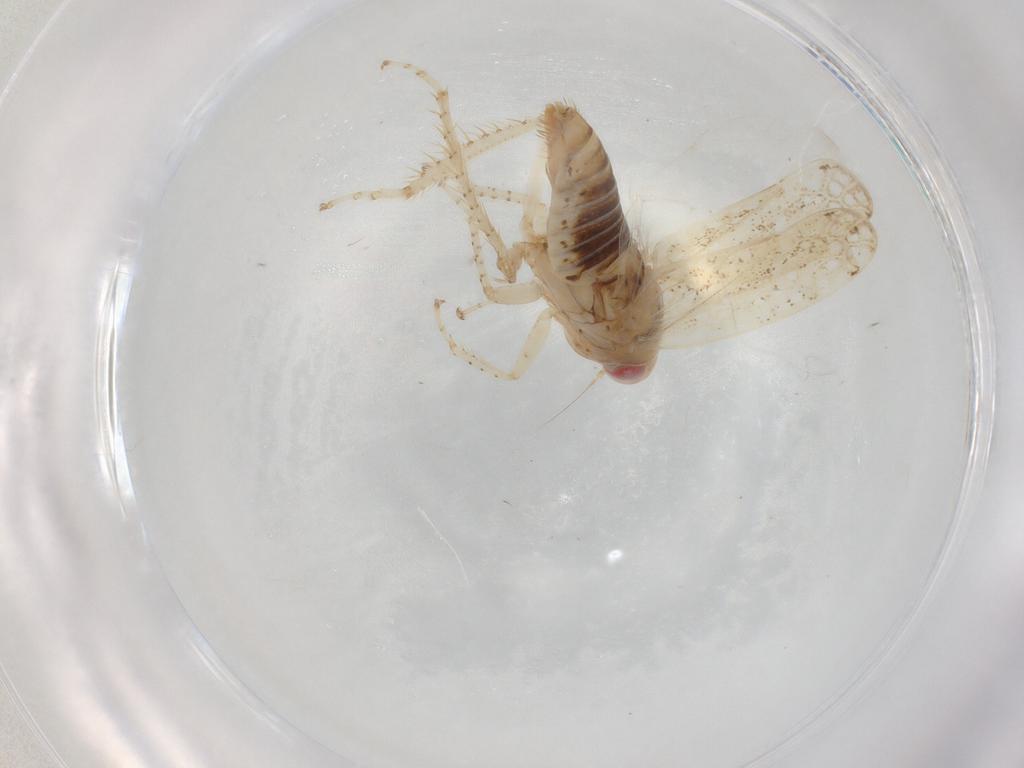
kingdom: Animalia
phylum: Arthropoda
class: Insecta
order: Hemiptera
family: Cicadellidae
